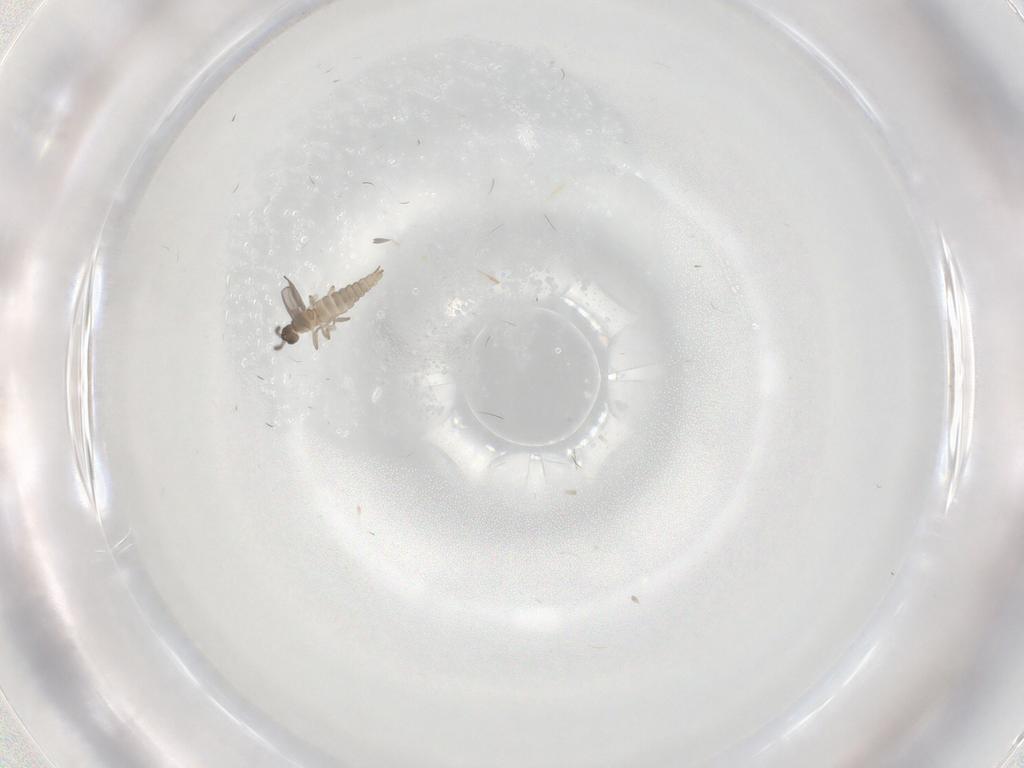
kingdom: Animalia
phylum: Arthropoda
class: Insecta
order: Diptera
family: Cecidomyiidae
